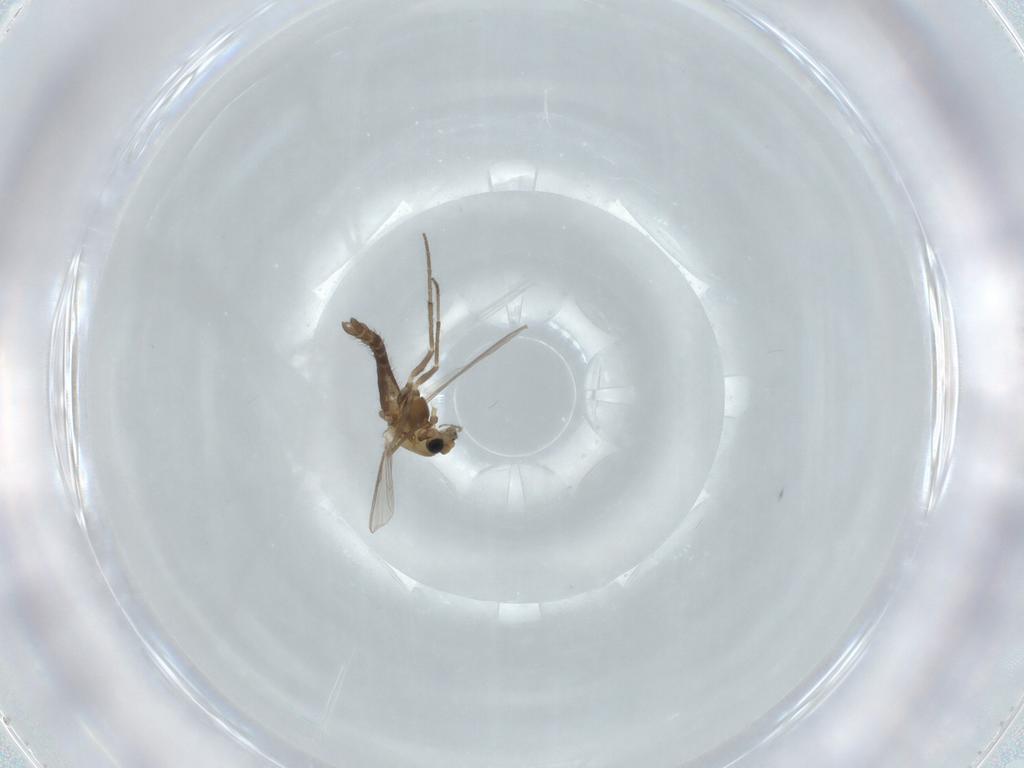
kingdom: Animalia
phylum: Arthropoda
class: Insecta
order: Diptera
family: Chironomidae
